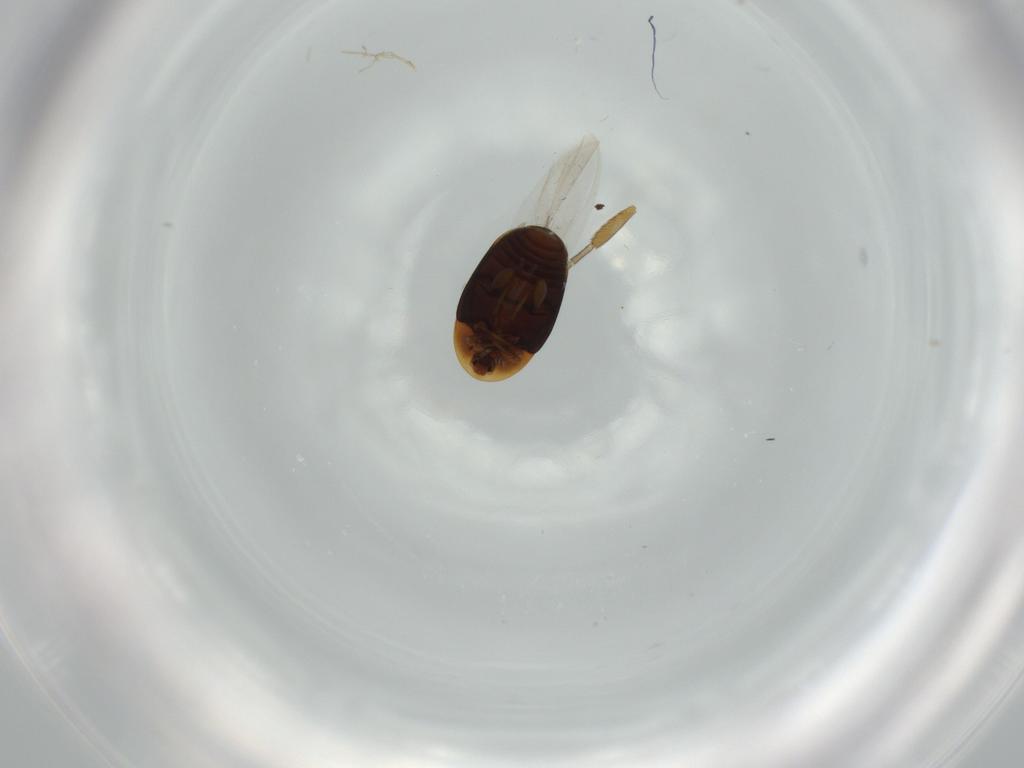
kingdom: Animalia
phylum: Arthropoda
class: Insecta
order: Coleoptera
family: Corylophidae
